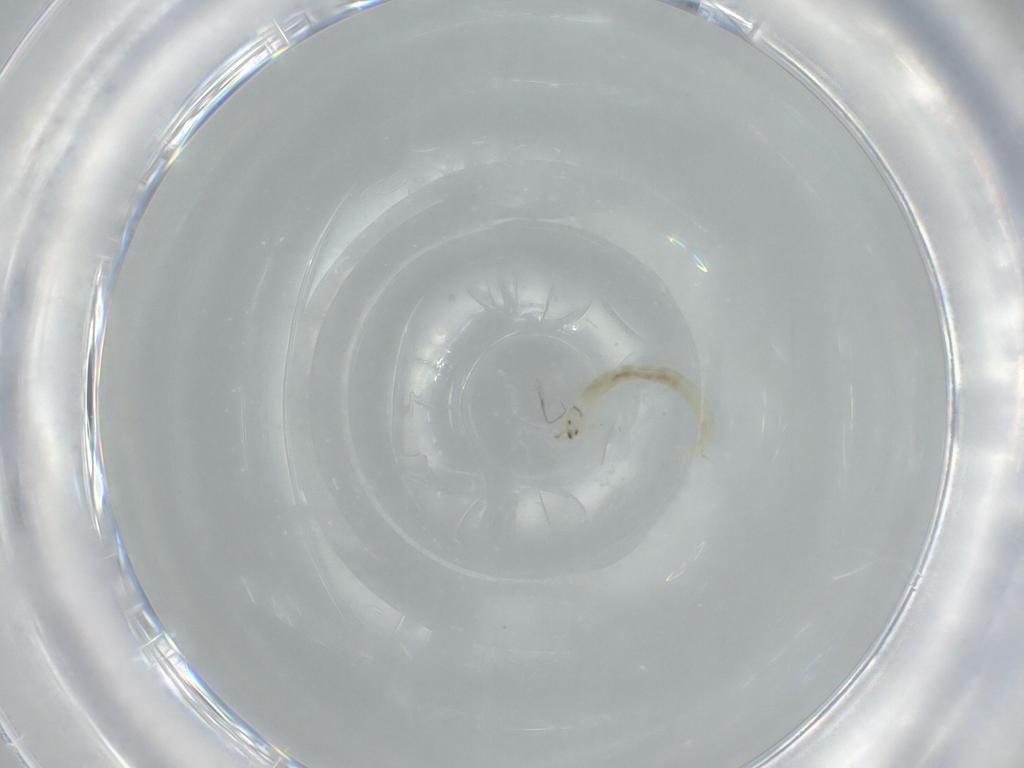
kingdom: Animalia
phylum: Arthropoda
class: Insecta
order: Diptera
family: Chironomidae
